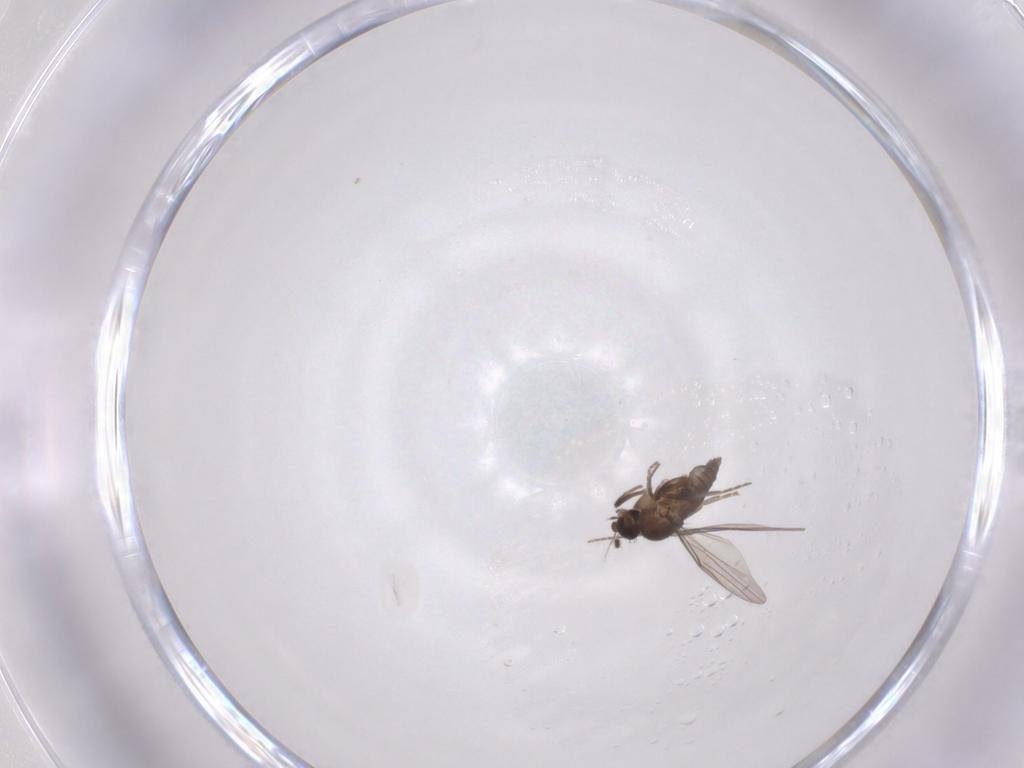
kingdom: Animalia
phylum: Arthropoda
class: Insecta
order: Diptera
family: Phoridae
